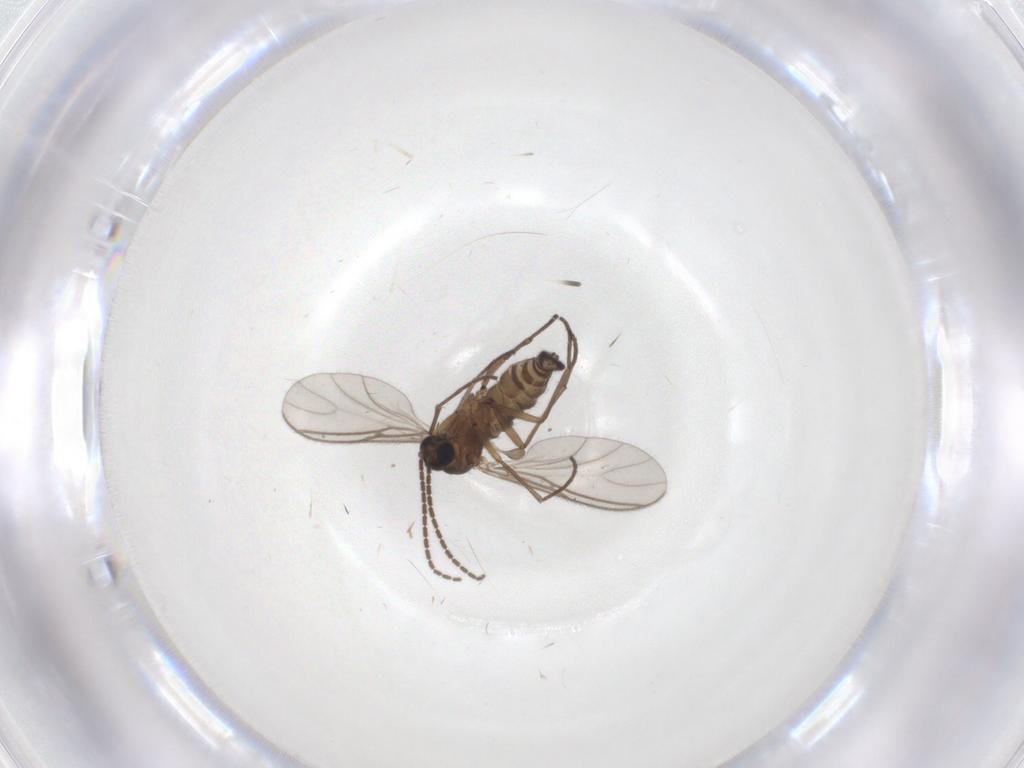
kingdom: Animalia
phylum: Arthropoda
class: Insecta
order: Diptera
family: Sciaridae
